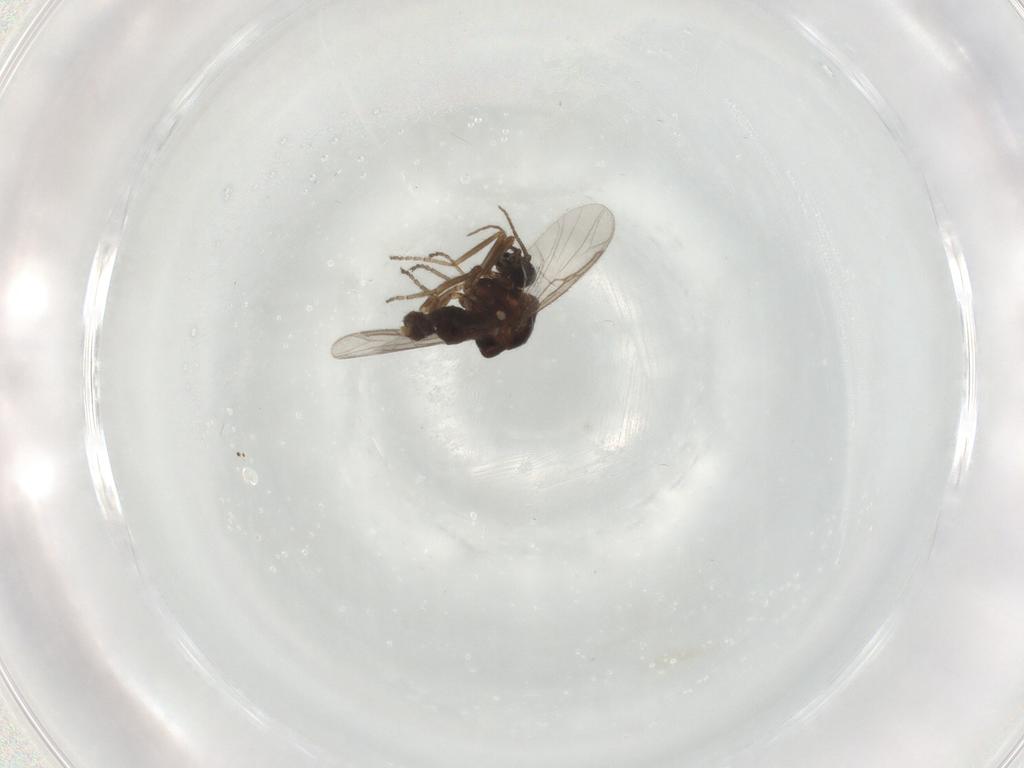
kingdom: Animalia
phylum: Arthropoda
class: Insecta
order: Diptera
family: Ceratopogonidae
